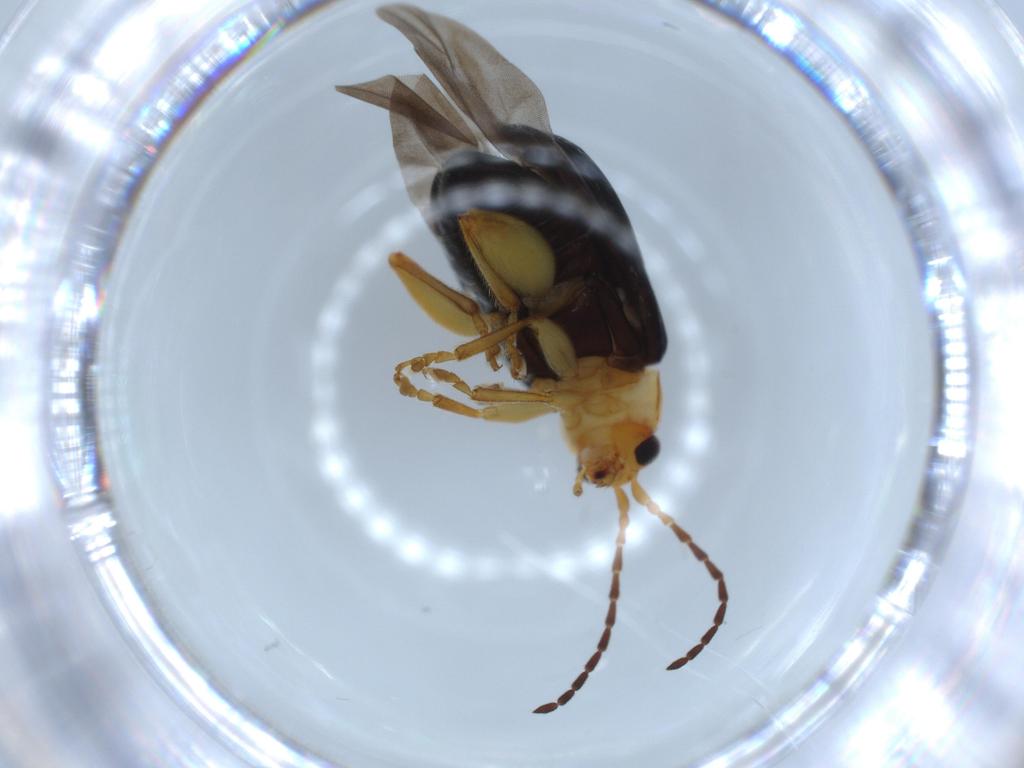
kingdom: Animalia
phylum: Arthropoda
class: Insecta
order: Coleoptera
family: Chrysomelidae
